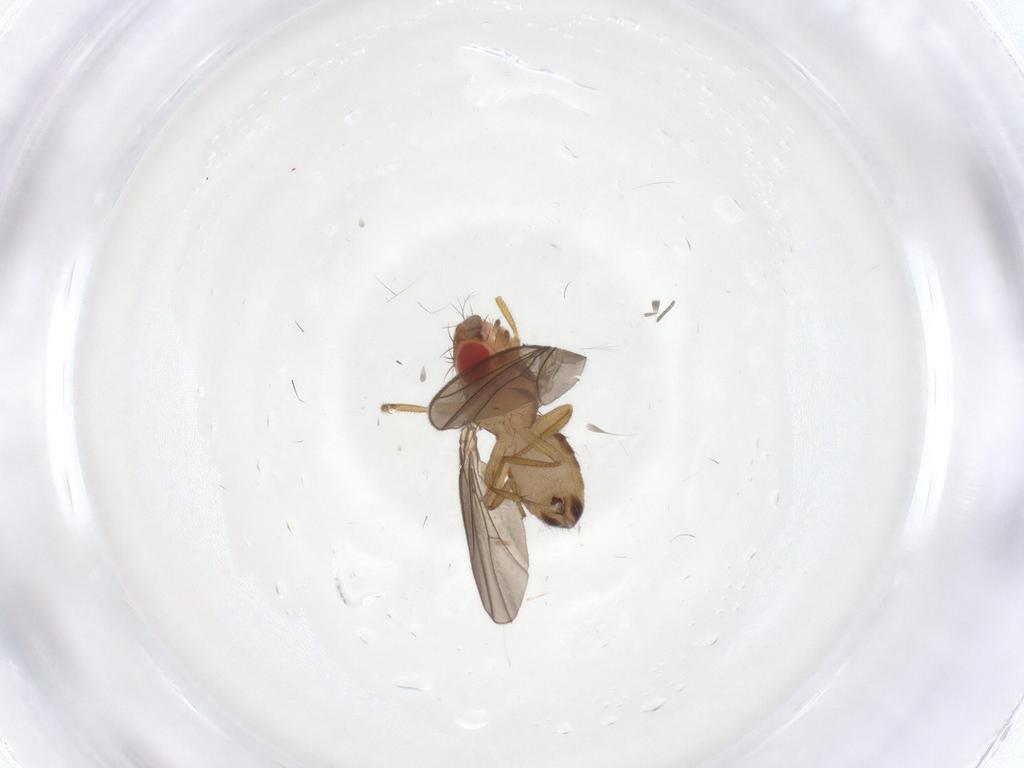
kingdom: Animalia
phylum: Arthropoda
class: Insecta
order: Diptera
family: Drosophilidae
